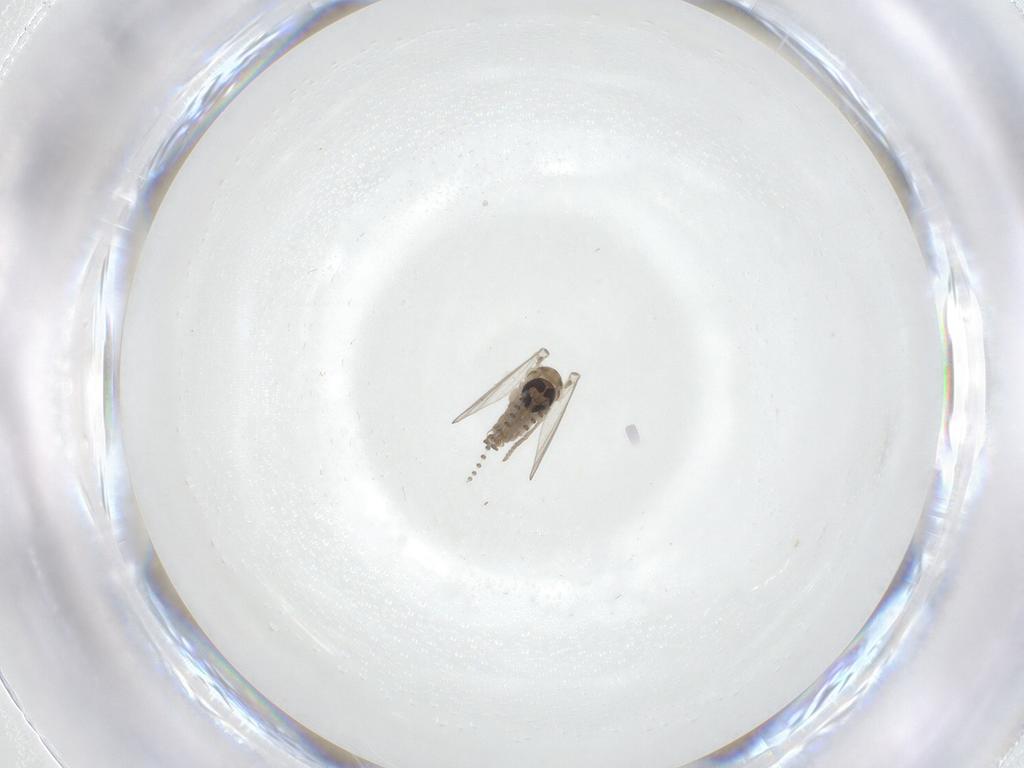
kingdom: Animalia
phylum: Arthropoda
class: Insecta
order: Diptera
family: Psychodidae
